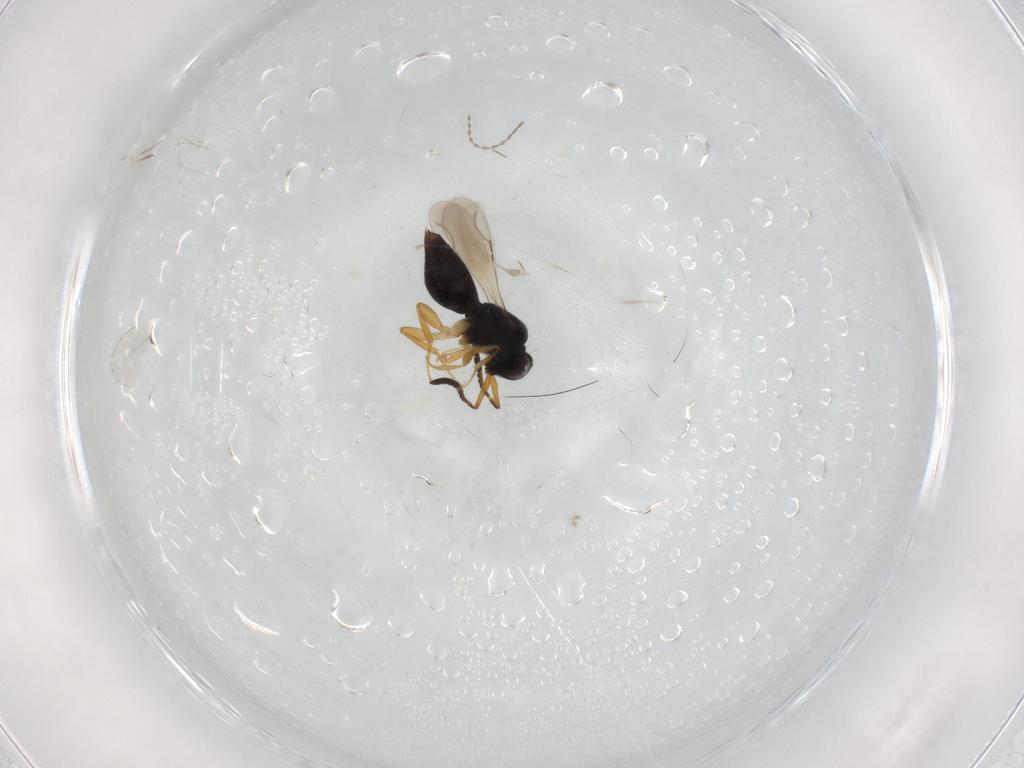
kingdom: Animalia
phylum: Arthropoda
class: Insecta
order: Hymenoptera
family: Formicidae
